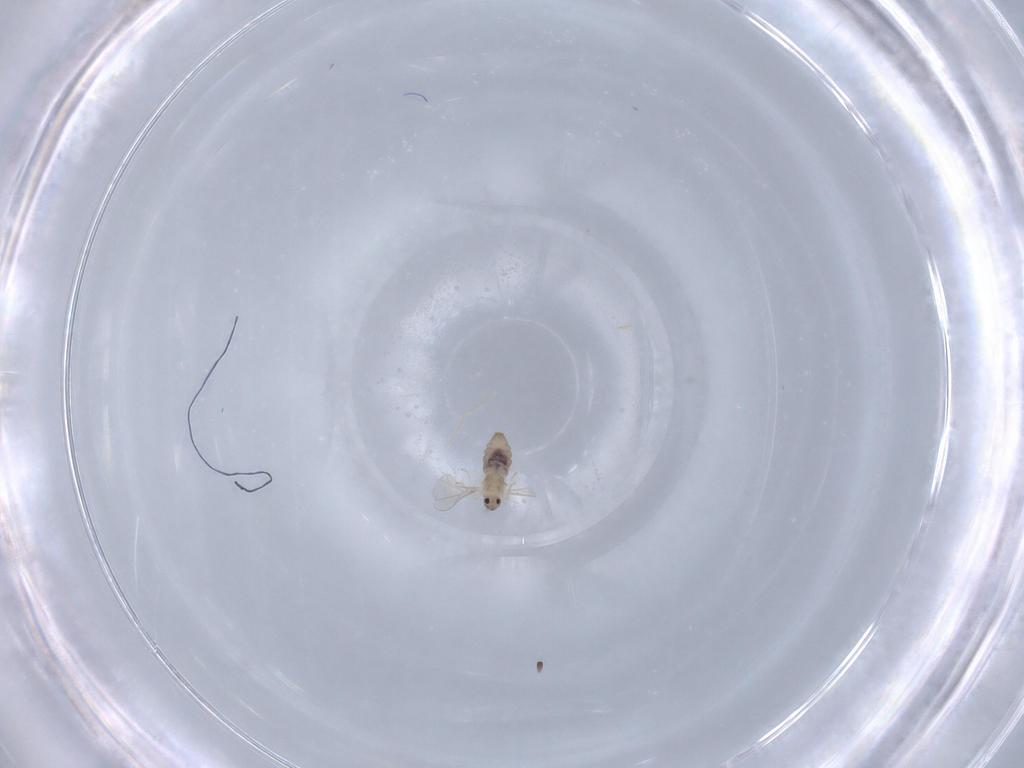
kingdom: Animalia
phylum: Arthropoda
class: Insecta
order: Diptera
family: Cecidomyiidae
